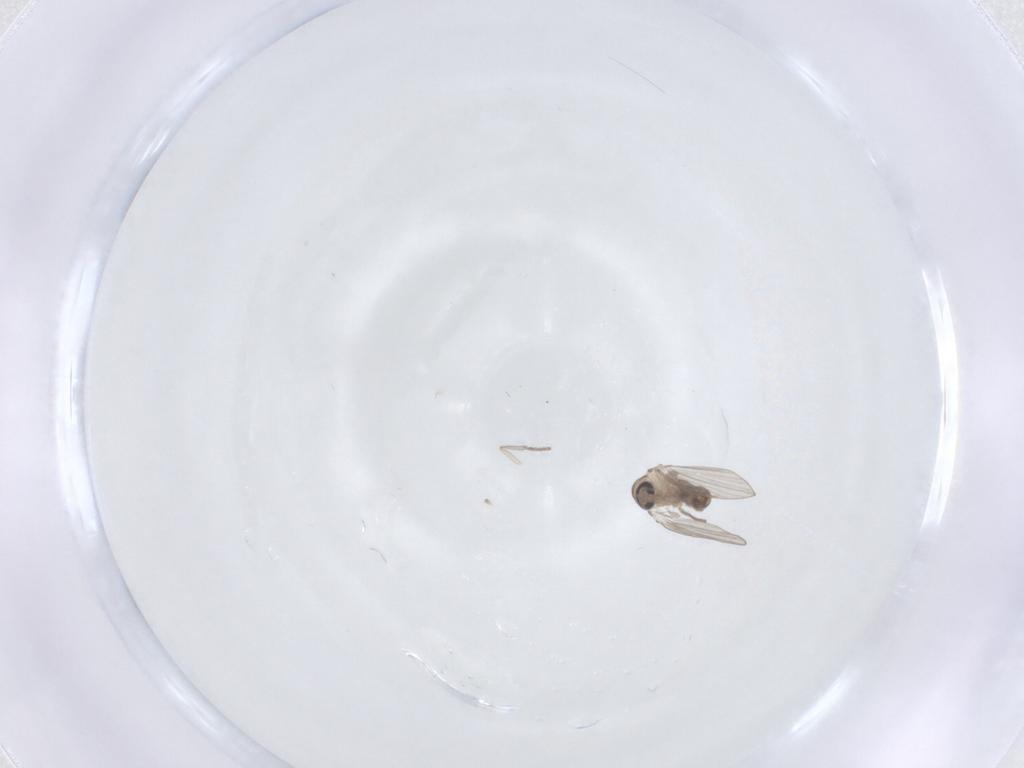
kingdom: Animalia
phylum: Arthropoda
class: Insecta
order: Diptera
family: Psychodidae
